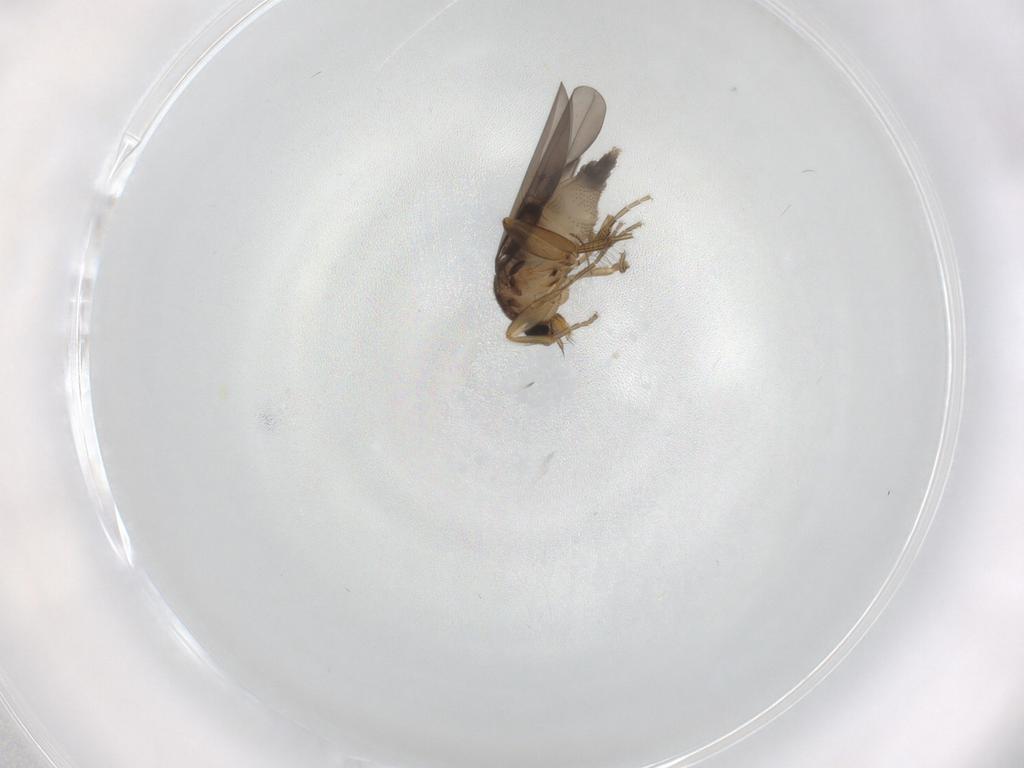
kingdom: Animalia
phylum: Arthropoda
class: Insecta
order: Diptera
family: Phoridae
